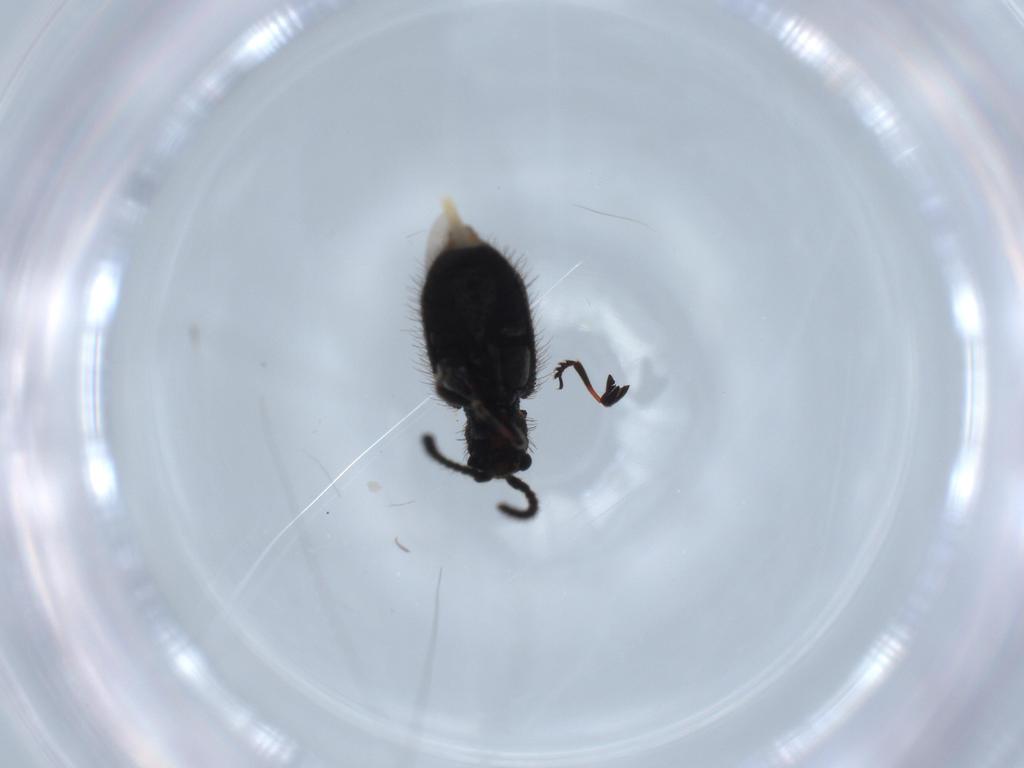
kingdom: Animalia
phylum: Arthropoda
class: Insecta
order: Coleoptera
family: Ptinidae
